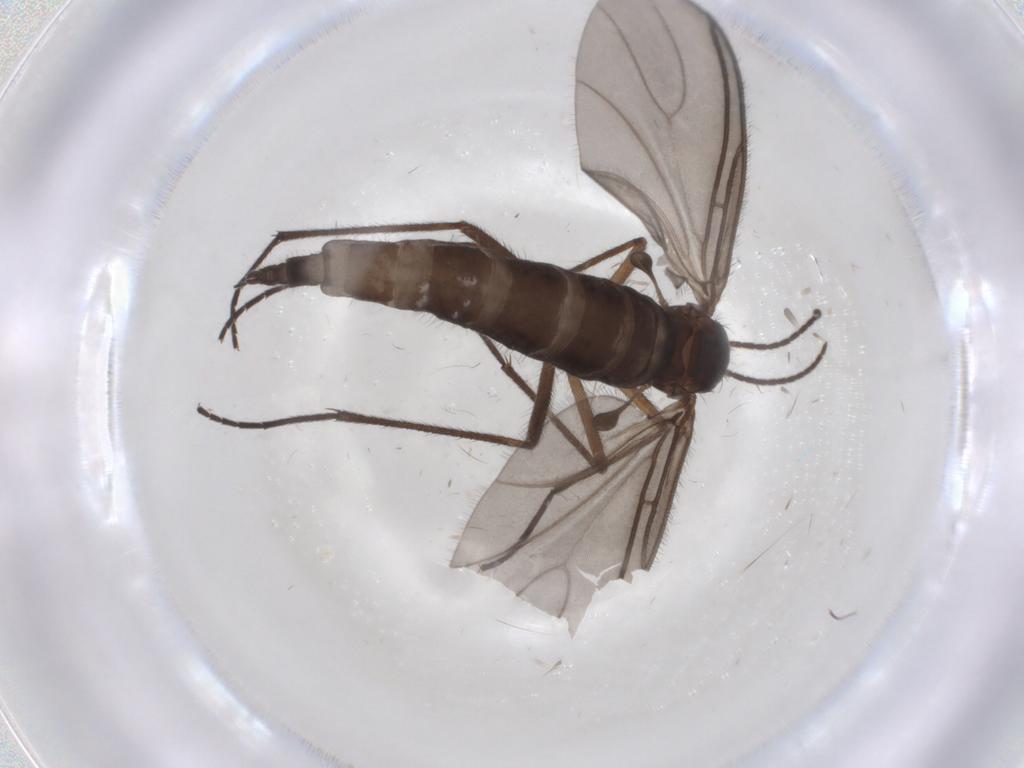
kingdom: Animalia
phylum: Arthropoda
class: Insecta
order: Diptera
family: Sciaridae
